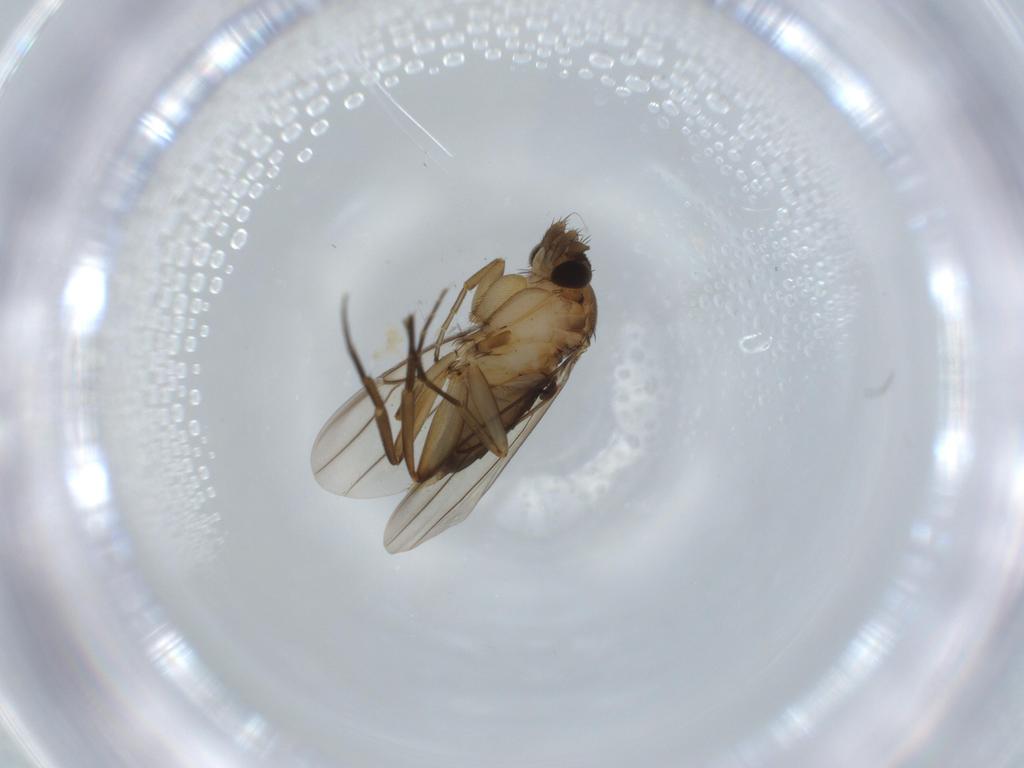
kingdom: Animalia
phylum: Arthropoda
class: Insecta
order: Diptera
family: Phoridae
